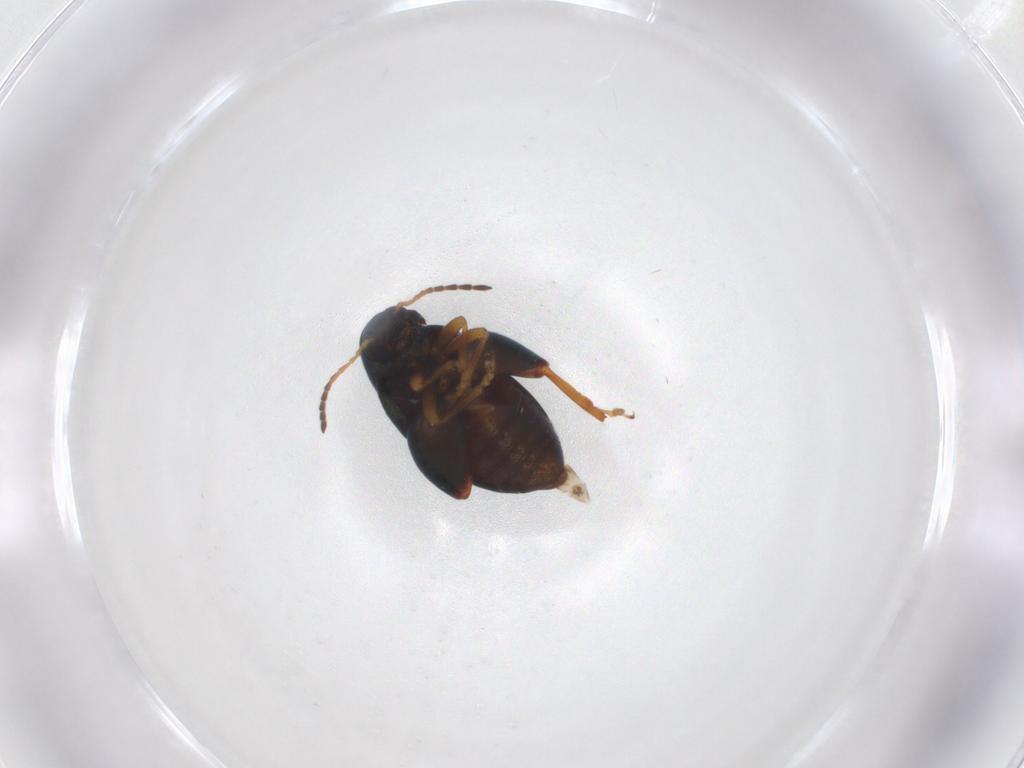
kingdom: Animalia
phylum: Arthropoda
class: Insecta
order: Coleoptera
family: Chrysomelidae
